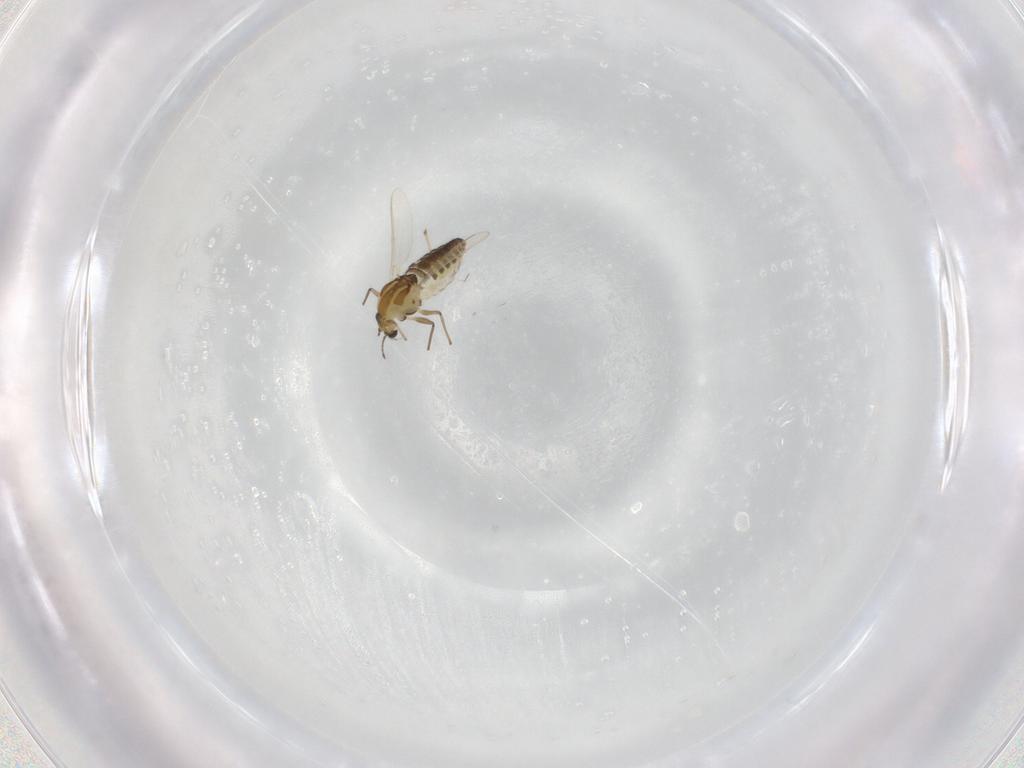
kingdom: Animalia
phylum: Arthropoda
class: Insecta
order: Diptera
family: Chironomidae
